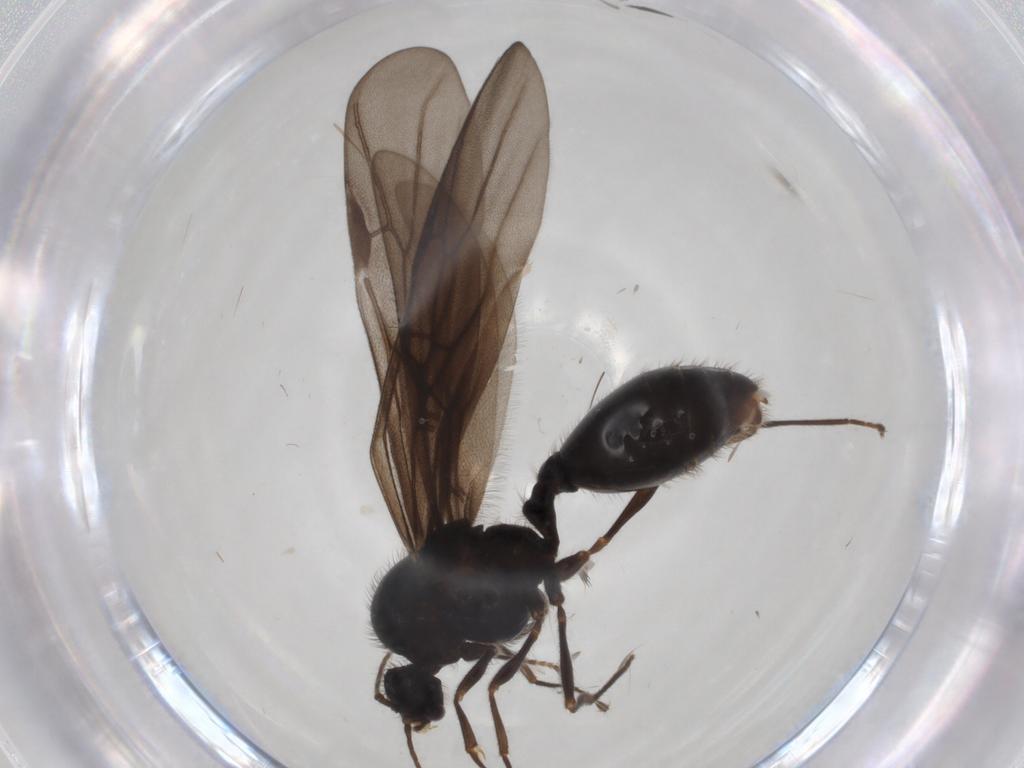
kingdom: Animalia
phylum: Arthropoda
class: Insecta
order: Hymenoptera
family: Formicidae
